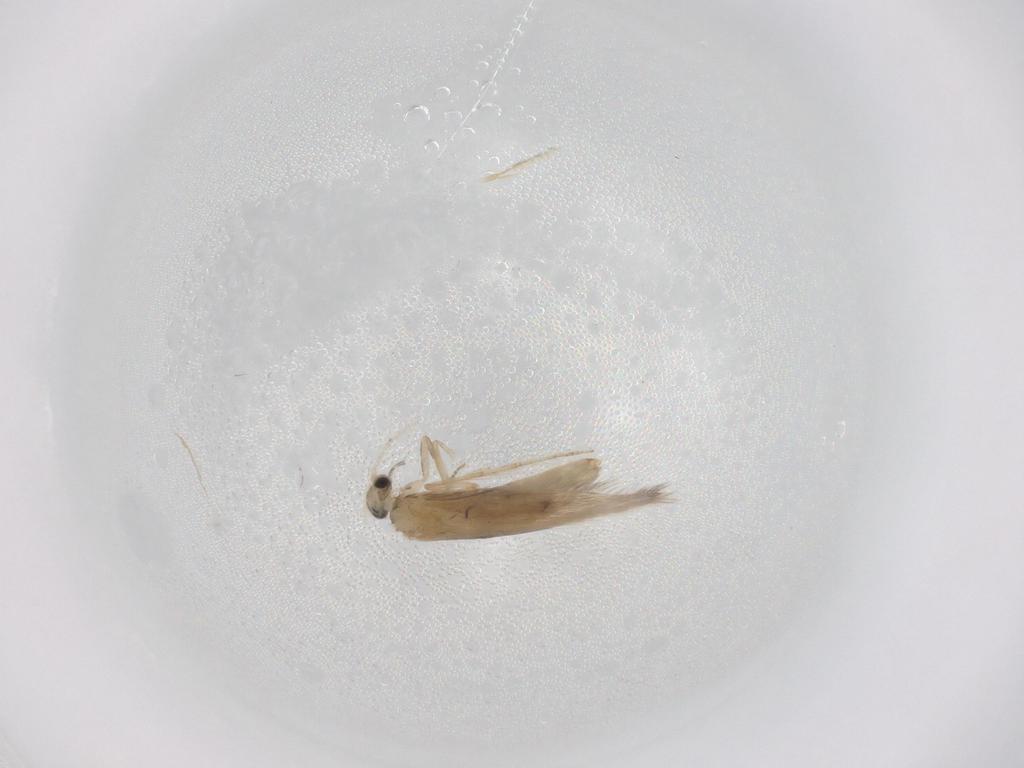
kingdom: Animalia
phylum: Arthropoda
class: Insecta
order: Trichoptera
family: Hydroptilidae
